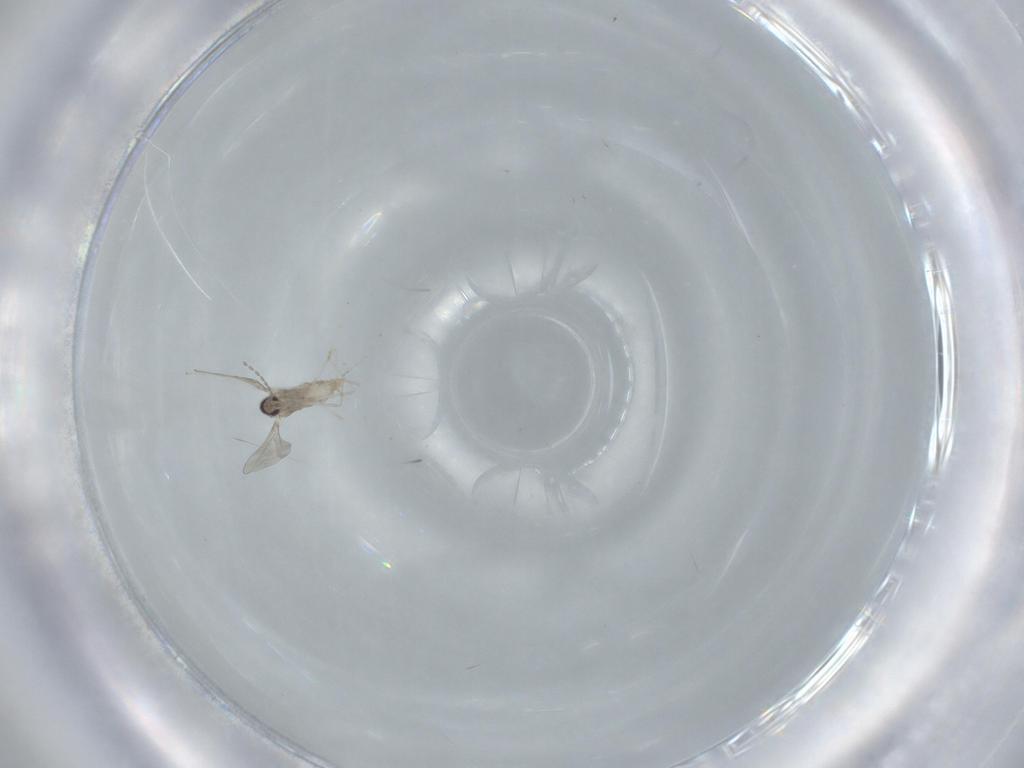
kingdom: Animalia
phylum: Arthropoda
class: Insecta
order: Diptera
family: Cecidomyiidae
